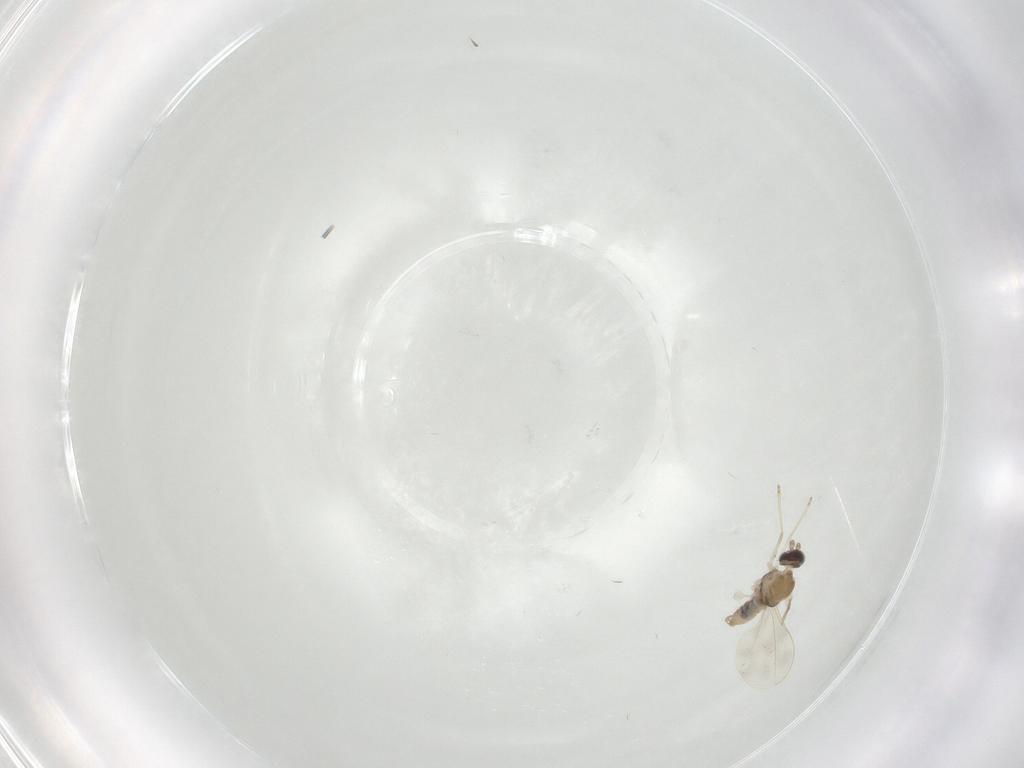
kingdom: Animalia
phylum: Arthropoda
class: Insecta
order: Diptera
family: Cecidomyiidae
